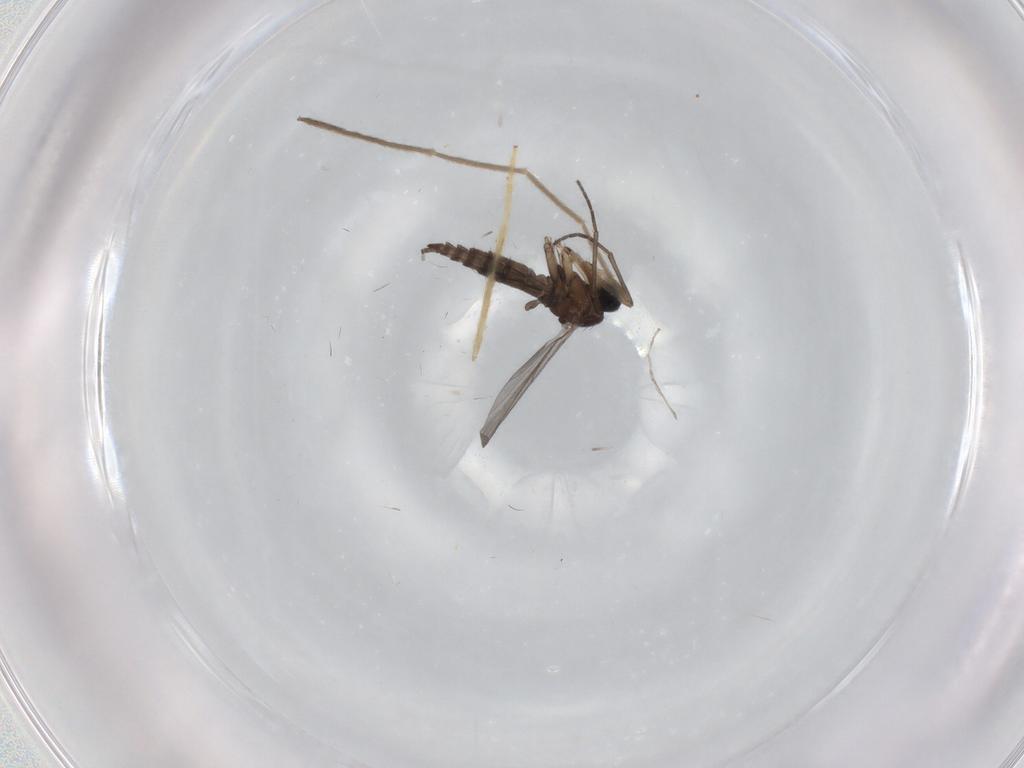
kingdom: Animalia
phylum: Arthropoda
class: Insecta
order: Diptera
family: Sciaridae
